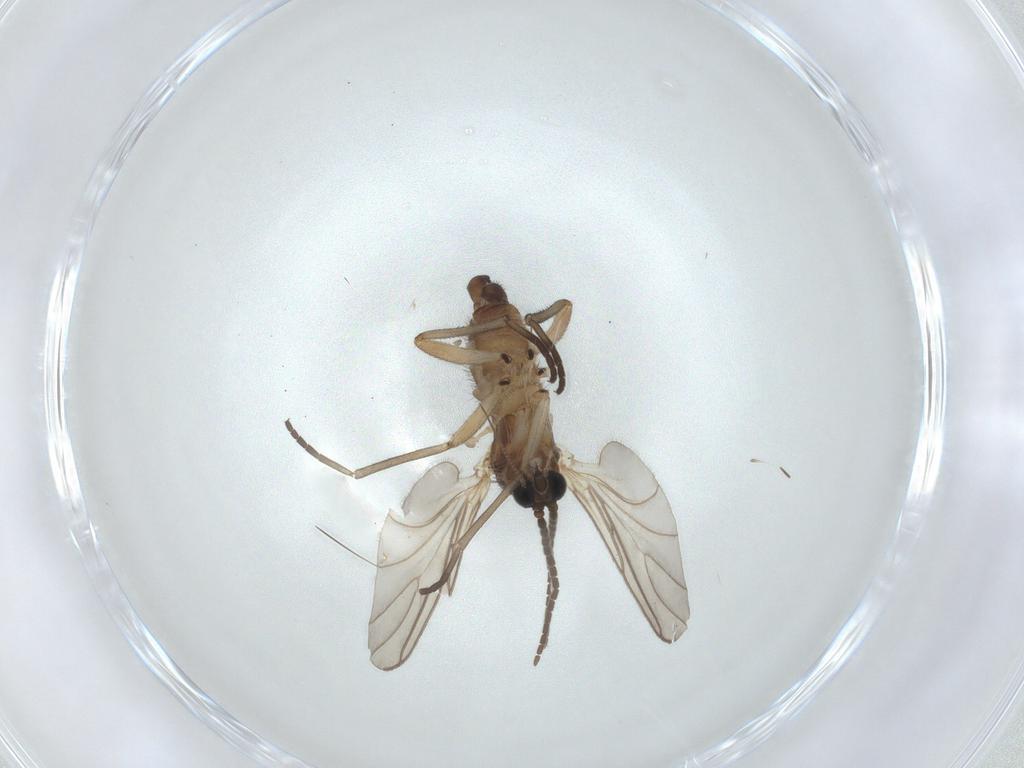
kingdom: Animalia
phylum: Arthropoda
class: Insecta
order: Diptera
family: Sciaridae
